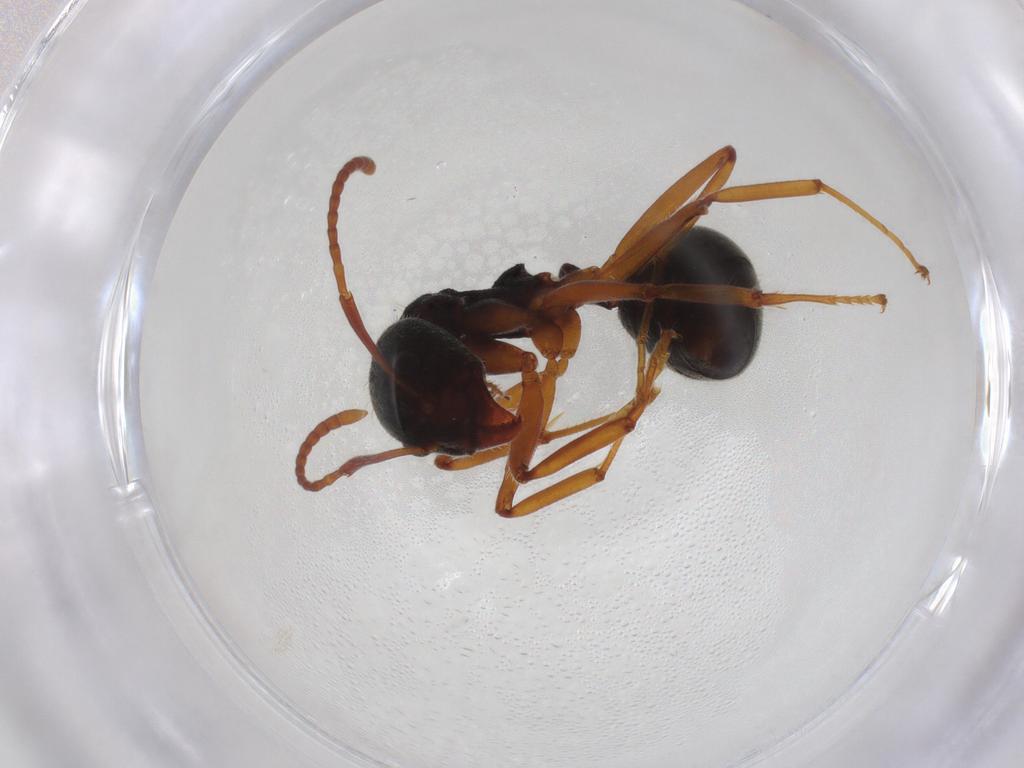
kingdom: Animalia
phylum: Arthropoda
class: Insecta
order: Hymenoptera
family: Formicidae
